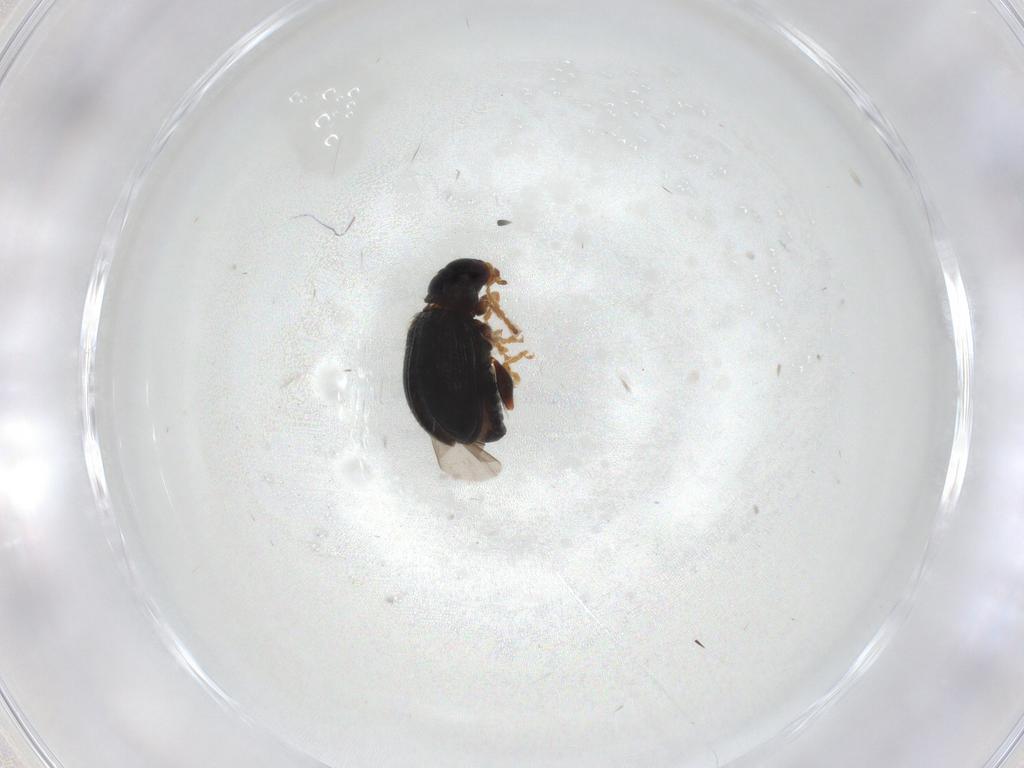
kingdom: Animalia
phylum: Arthropoda
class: Insecta
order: Coleoptera
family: Chrysomelidae
